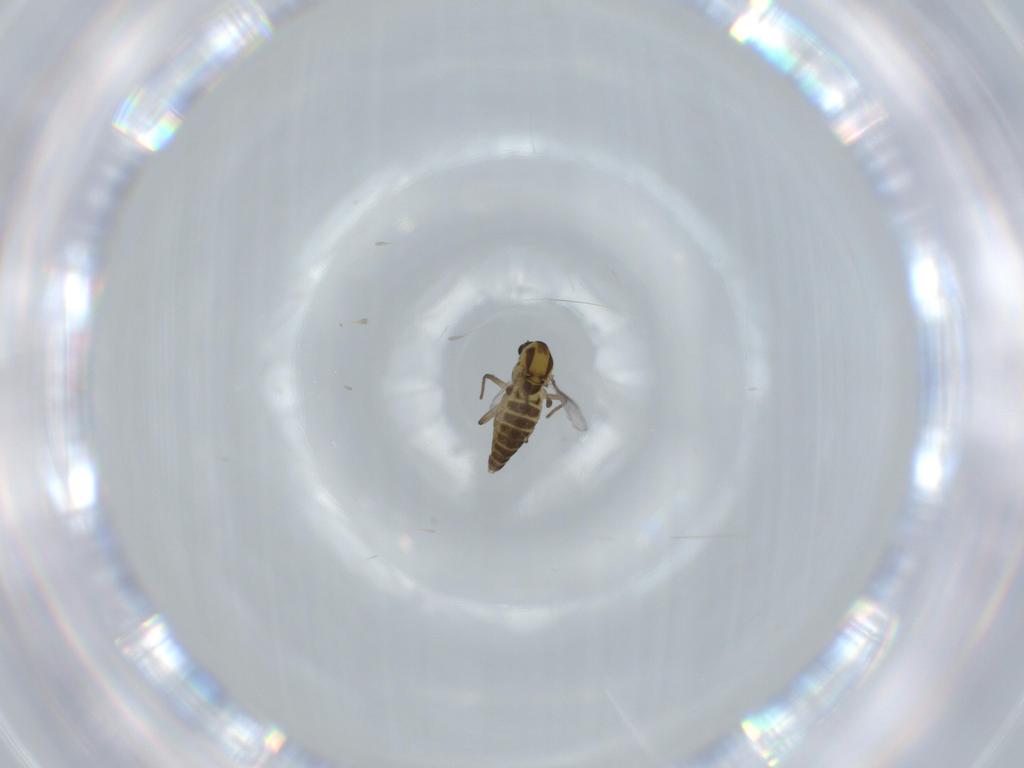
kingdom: Animalia
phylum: Arthropoda
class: Insecta
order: Diptera
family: Chironomidae
